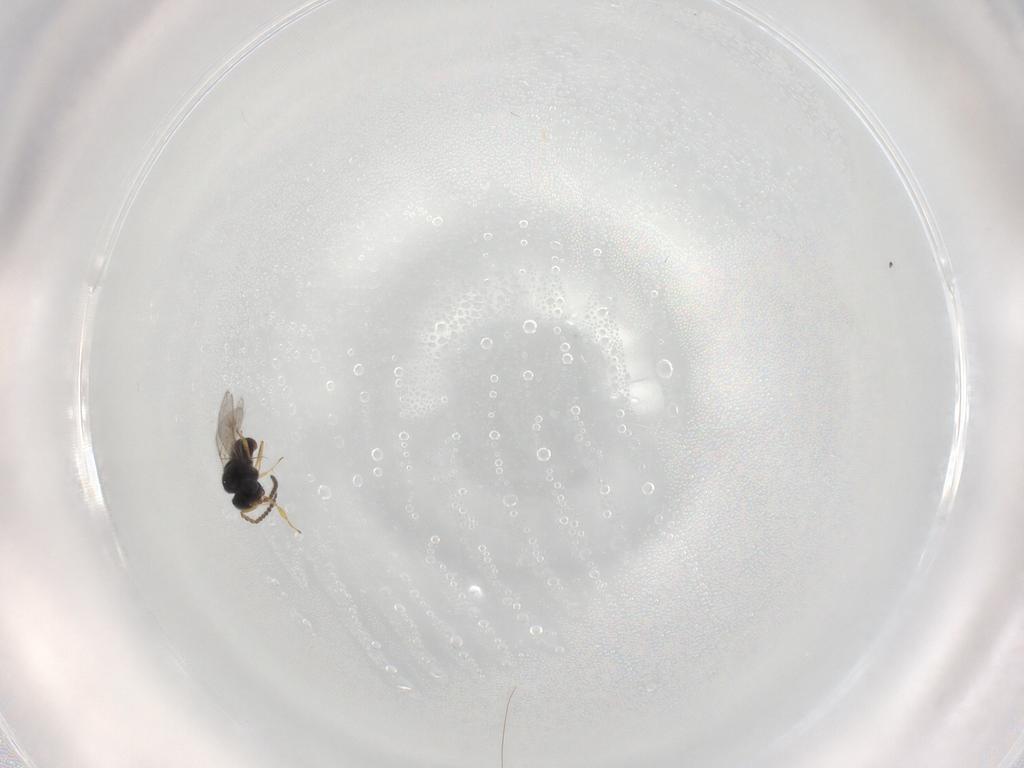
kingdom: Animalia
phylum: Arthropoda
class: Insecta
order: Hymenoptera
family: Scelionidae
